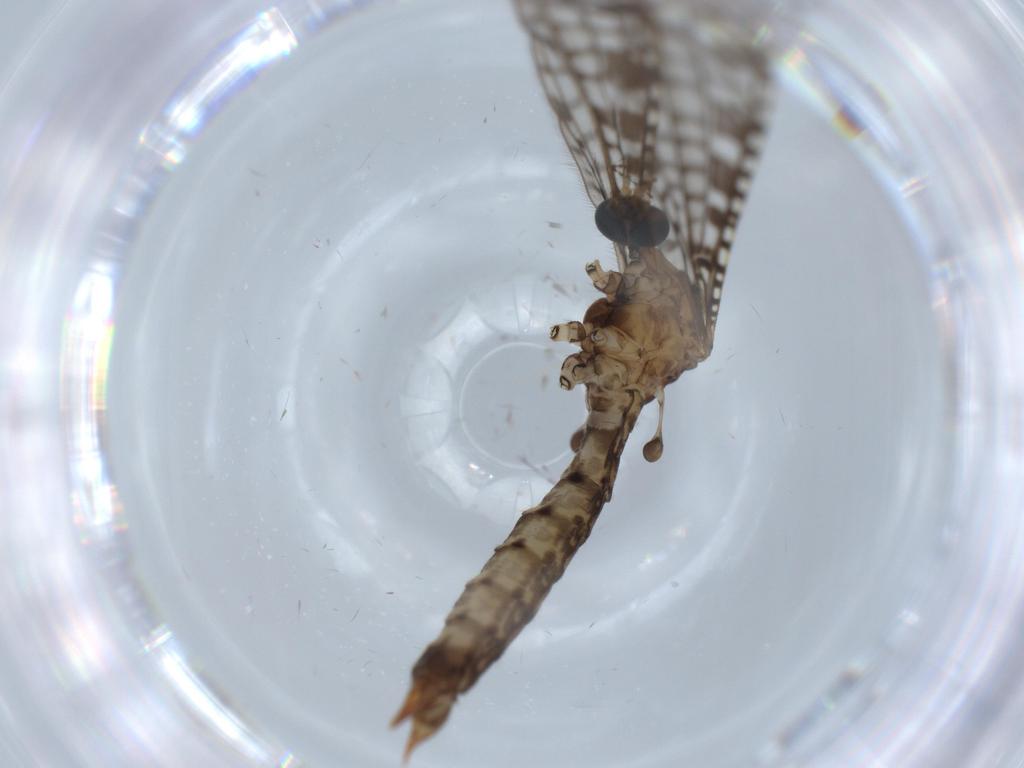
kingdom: Animalia
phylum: Arthropoda
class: Insecta
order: Diptera
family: Limoniidae
